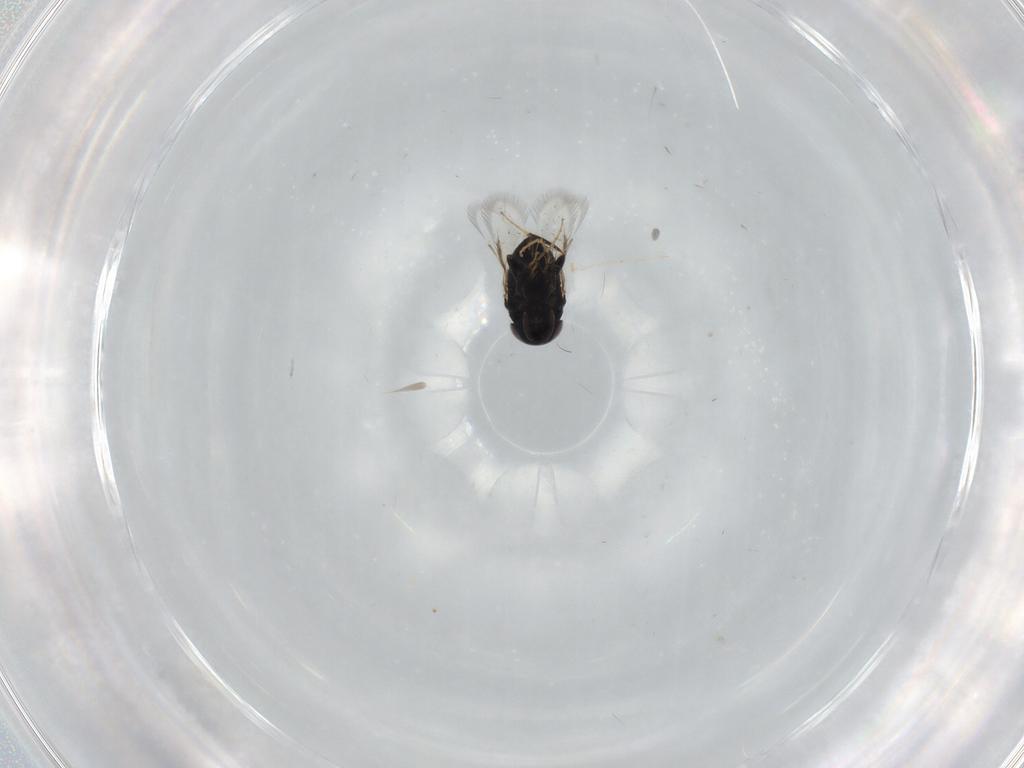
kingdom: Animalia
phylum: Arthropoda
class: Insecta
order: Hymenoptera
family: Signiphoridae
